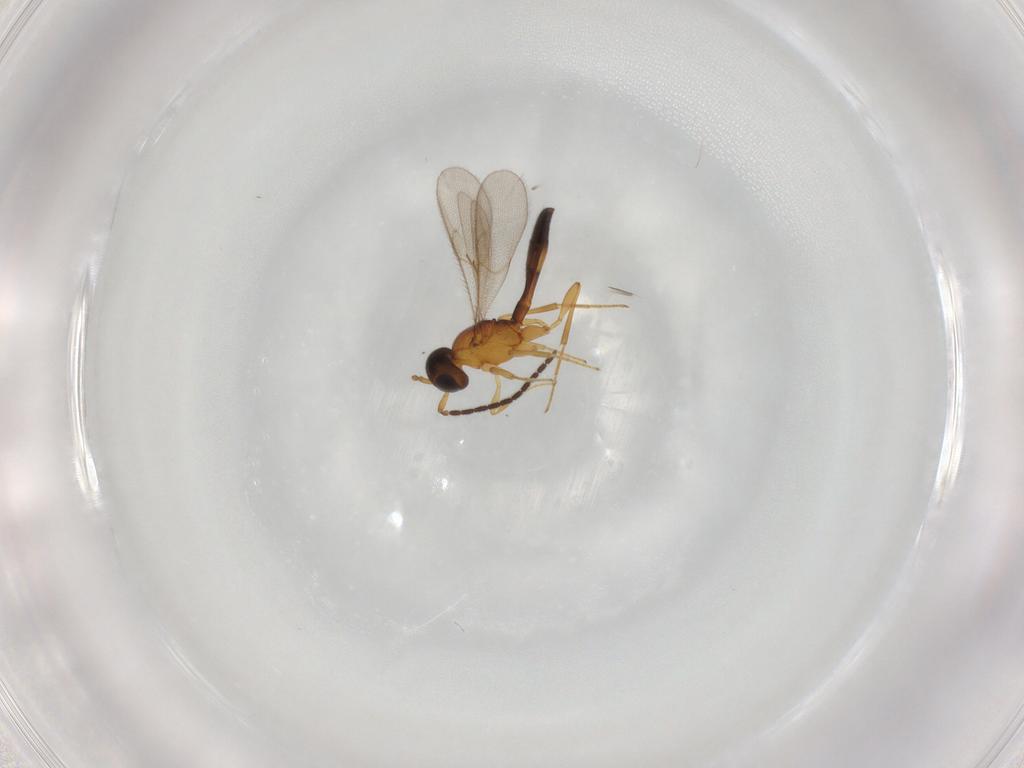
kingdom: Animalia
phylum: Arthropoda
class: Insecta
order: Hymenoptera
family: Scelionidae
